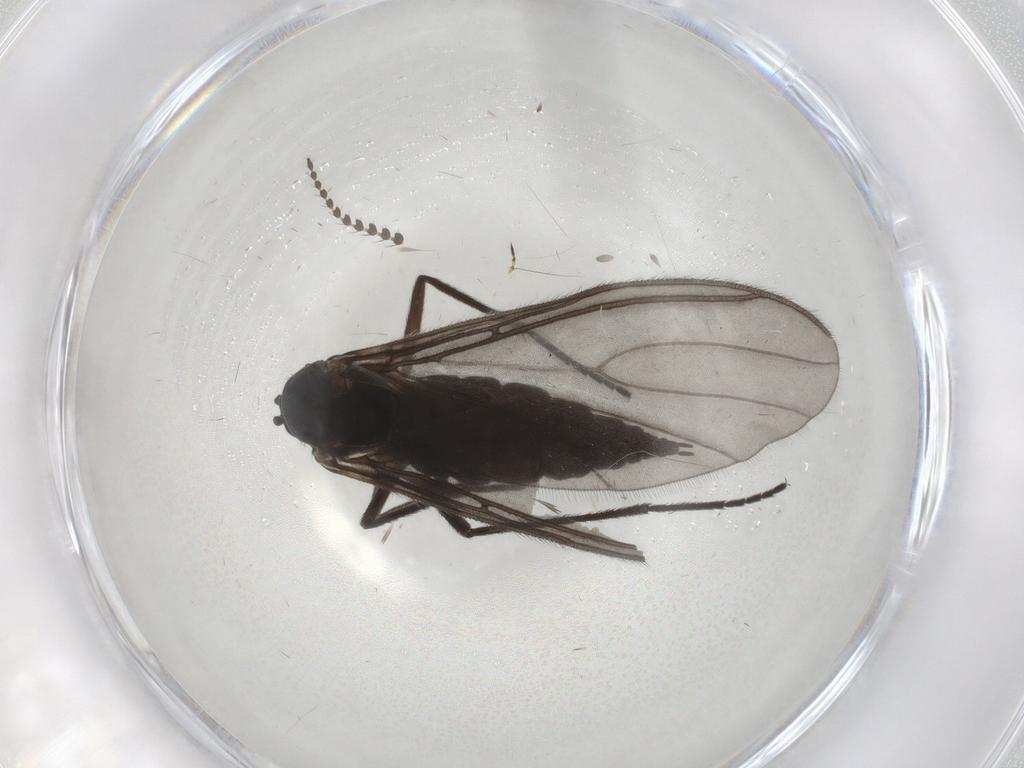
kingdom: Animalia
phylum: Arthropoda
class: Insecta
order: Diptera
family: Sciaridae
